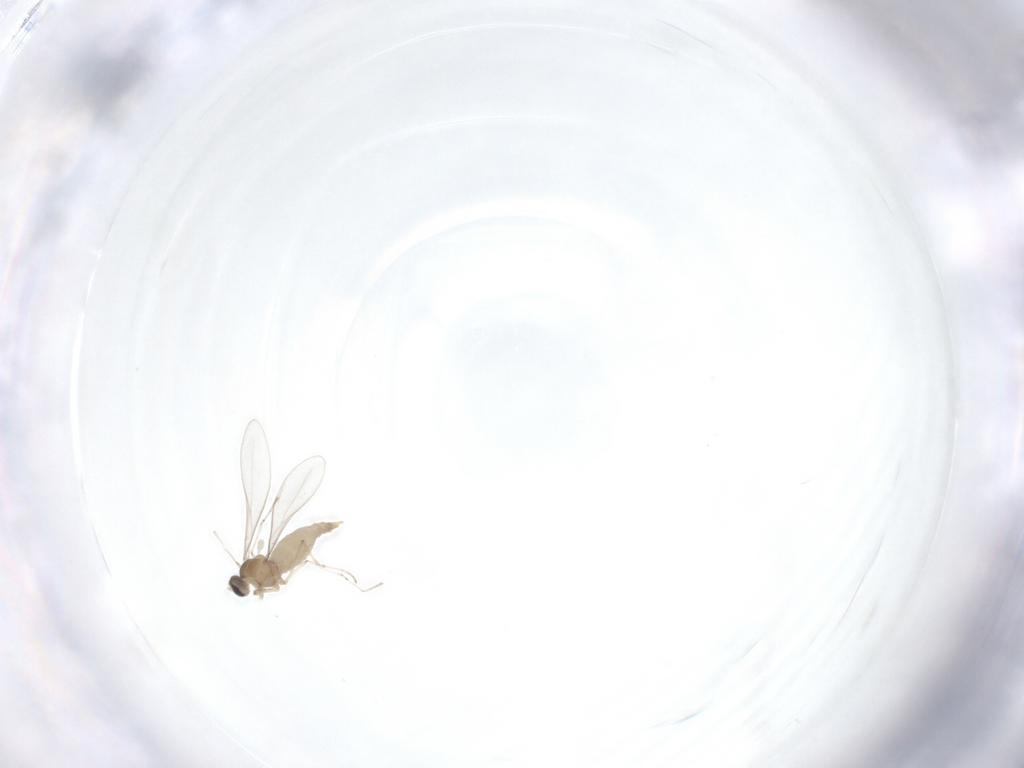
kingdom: Animalia
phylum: Arthropoda
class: Insecta
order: Diptera
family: Cecidomyiidae
